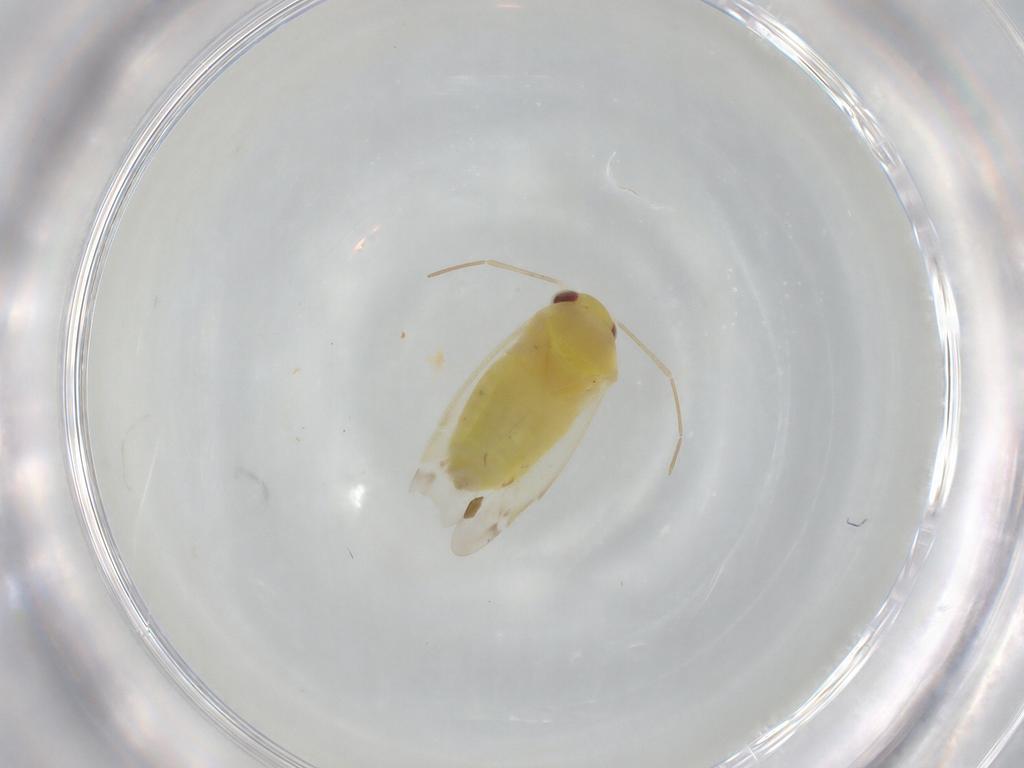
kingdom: Animalia
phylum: Arthropoda
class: Insecta
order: Hemiptera
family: Miridae
